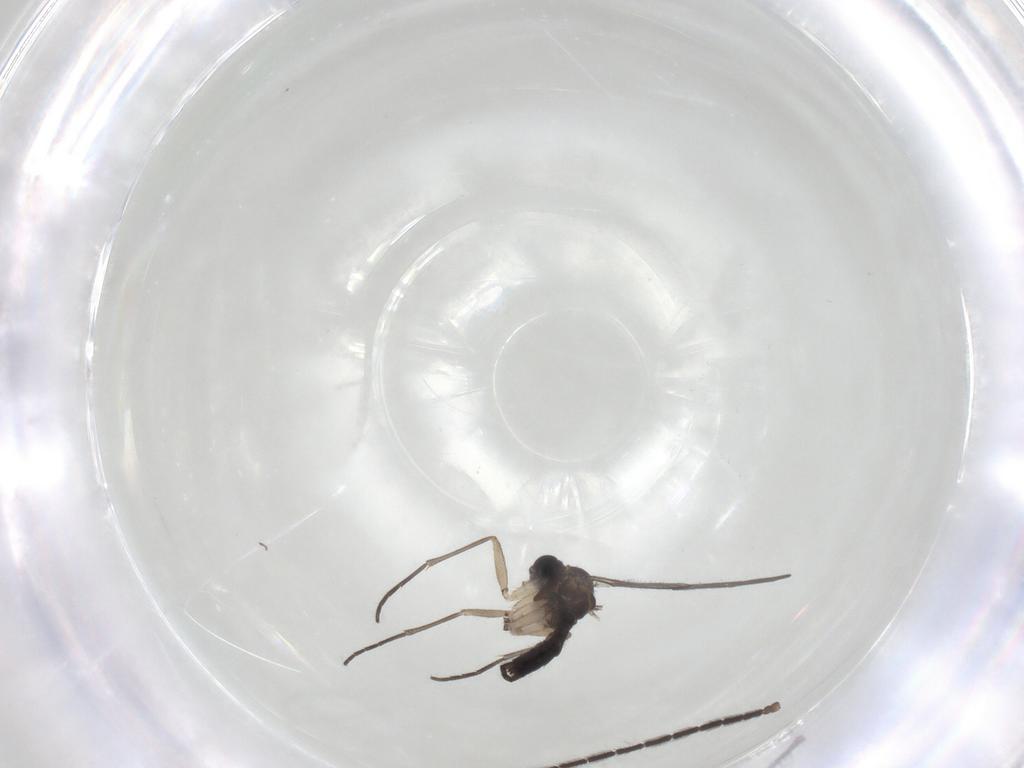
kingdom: Animalia
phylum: Arthropoda
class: Insecta
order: Diptera
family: Sciaridae
